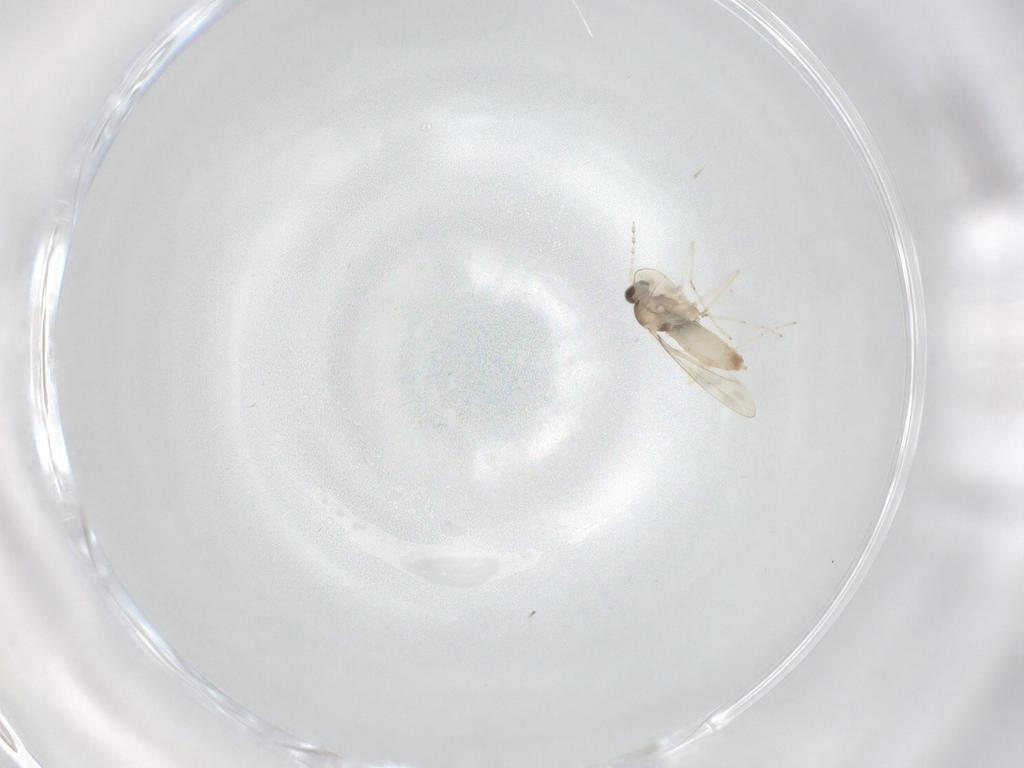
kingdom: Animalia
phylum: Arthropoda
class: Insecta
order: Diptera
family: Cecidomyiidae
